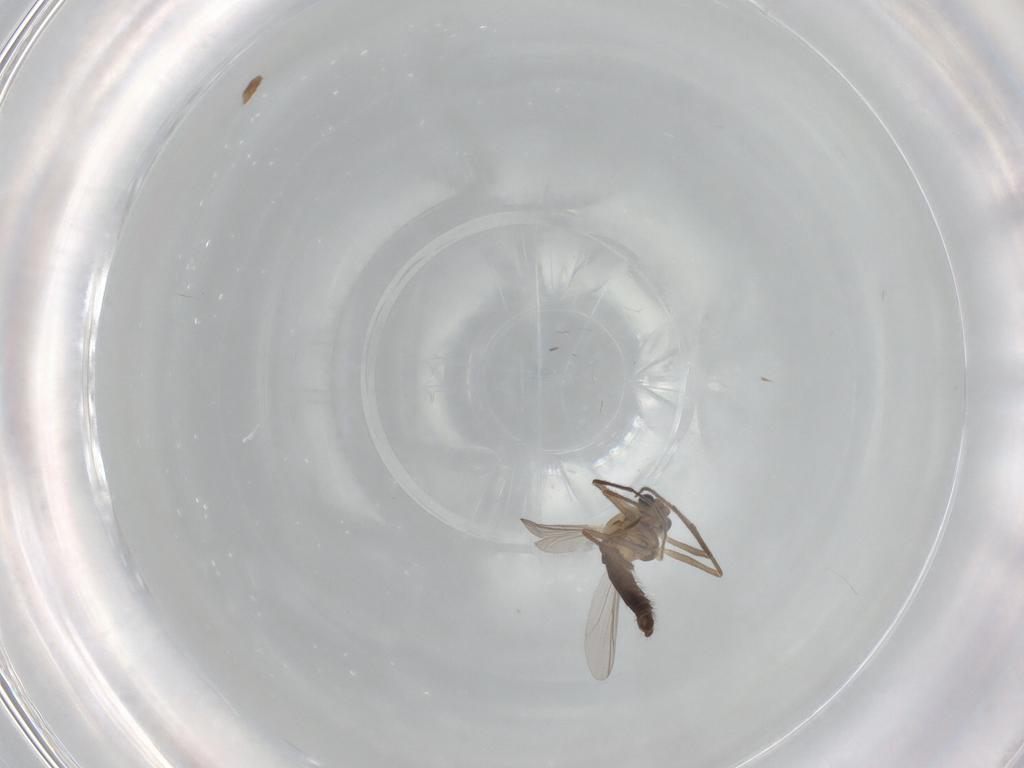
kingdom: Animalia
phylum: Arthropoda
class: Insecta
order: Diptera
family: Chironomidae
